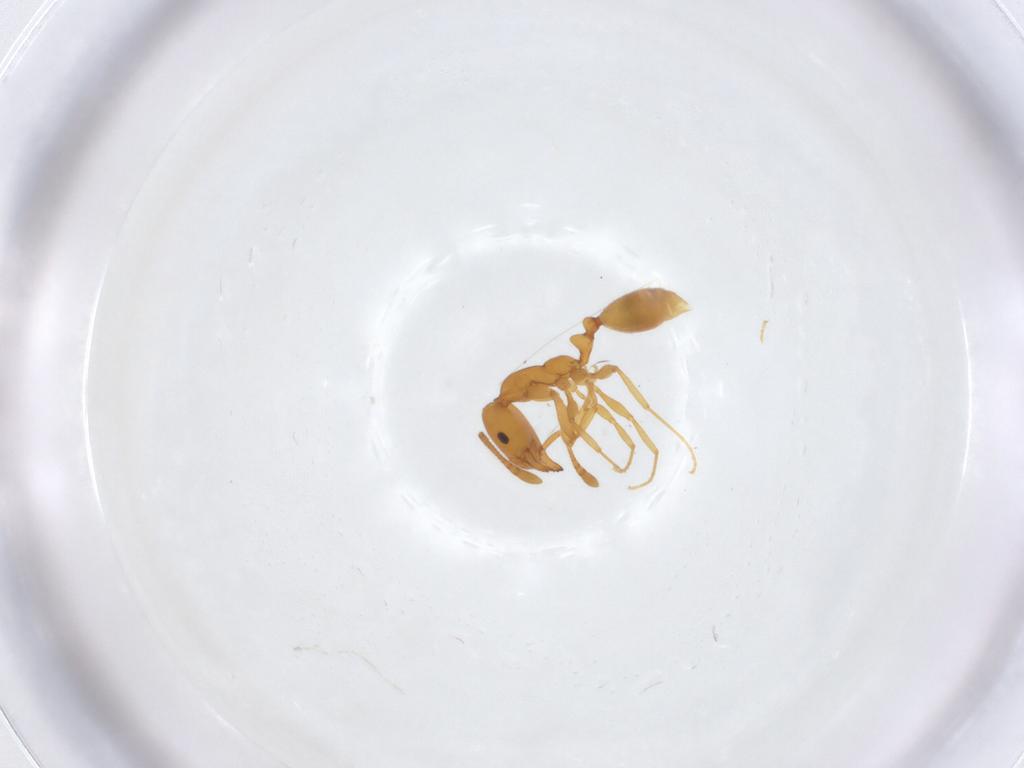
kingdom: Animalia
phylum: Arthropoda
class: Insecta
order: Hymenoptera
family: Formicidae
